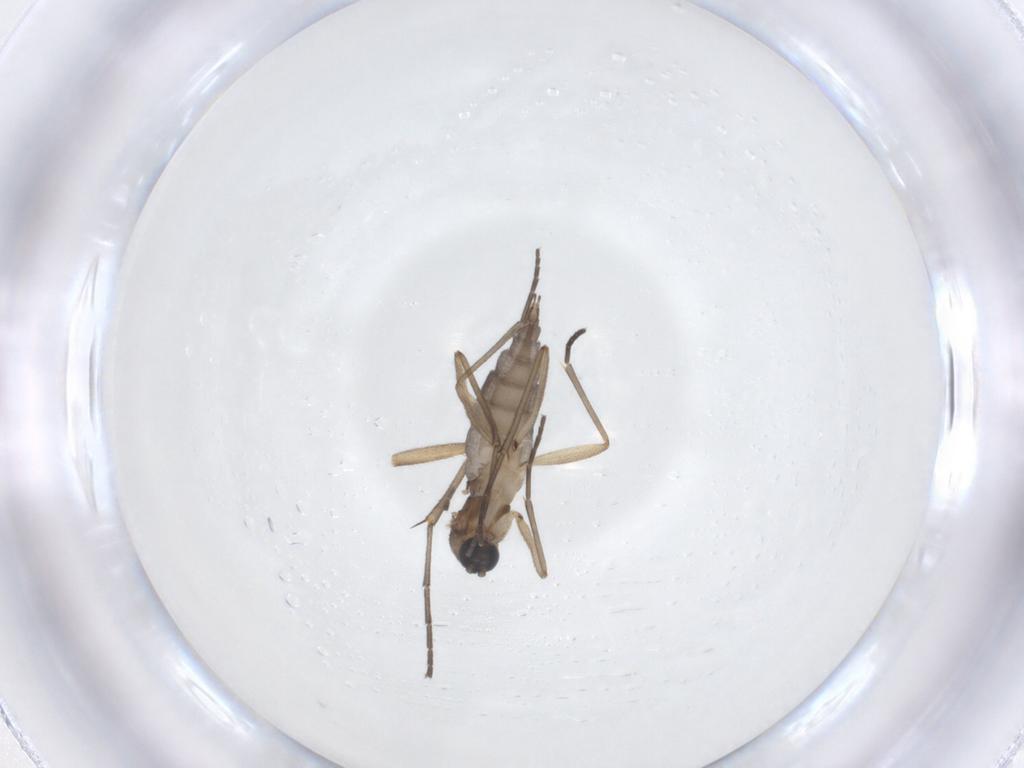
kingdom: Animalia
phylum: Arthropoda
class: Insecta
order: Diptera
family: Sciaridae
